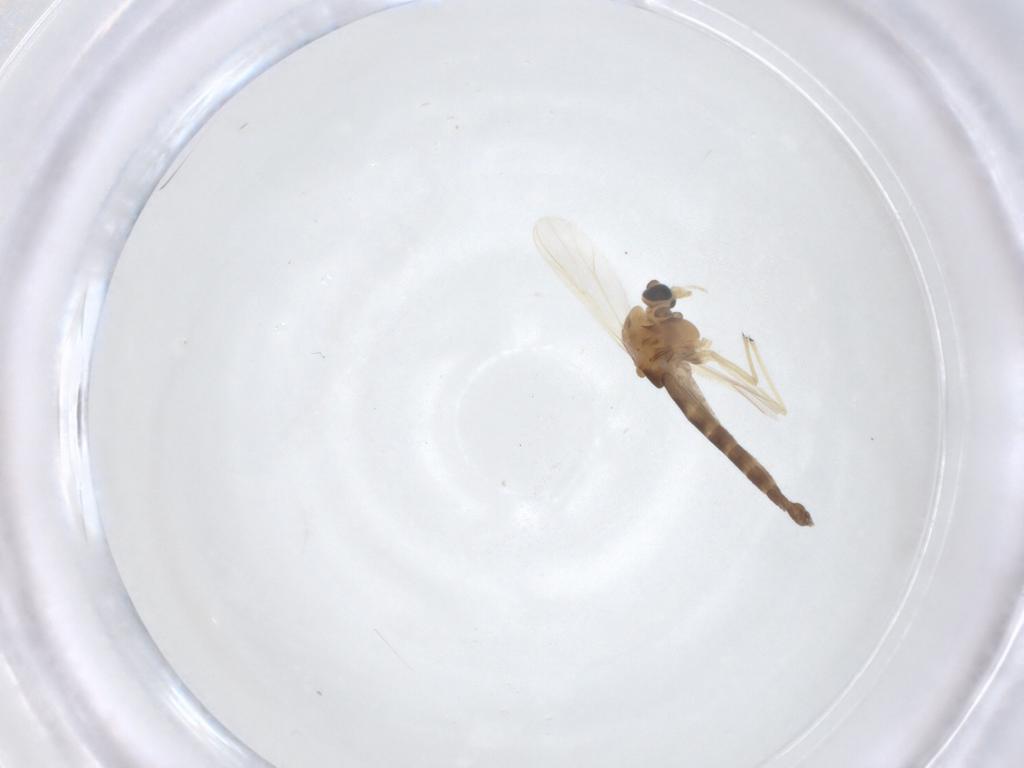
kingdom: Animalia
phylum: Arthropoda
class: Insecta
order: Diptera
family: Chironomidae
